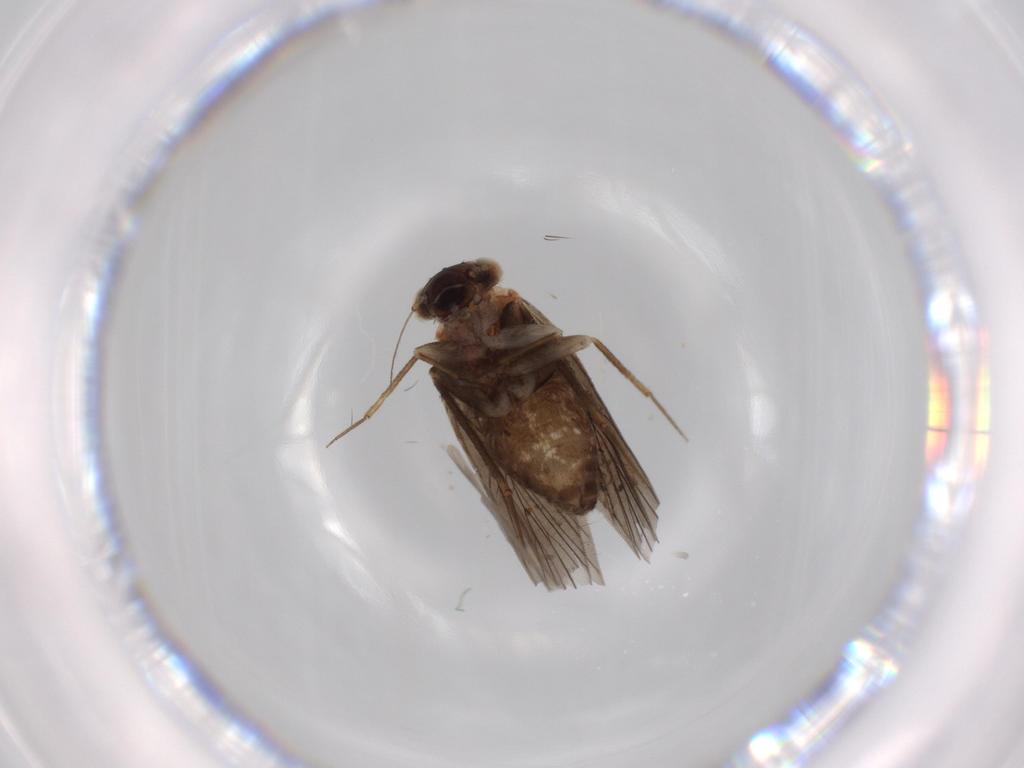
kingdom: Animalia
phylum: Arthropoda
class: Insecta
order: Psocodea
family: Lepidopsocidae
